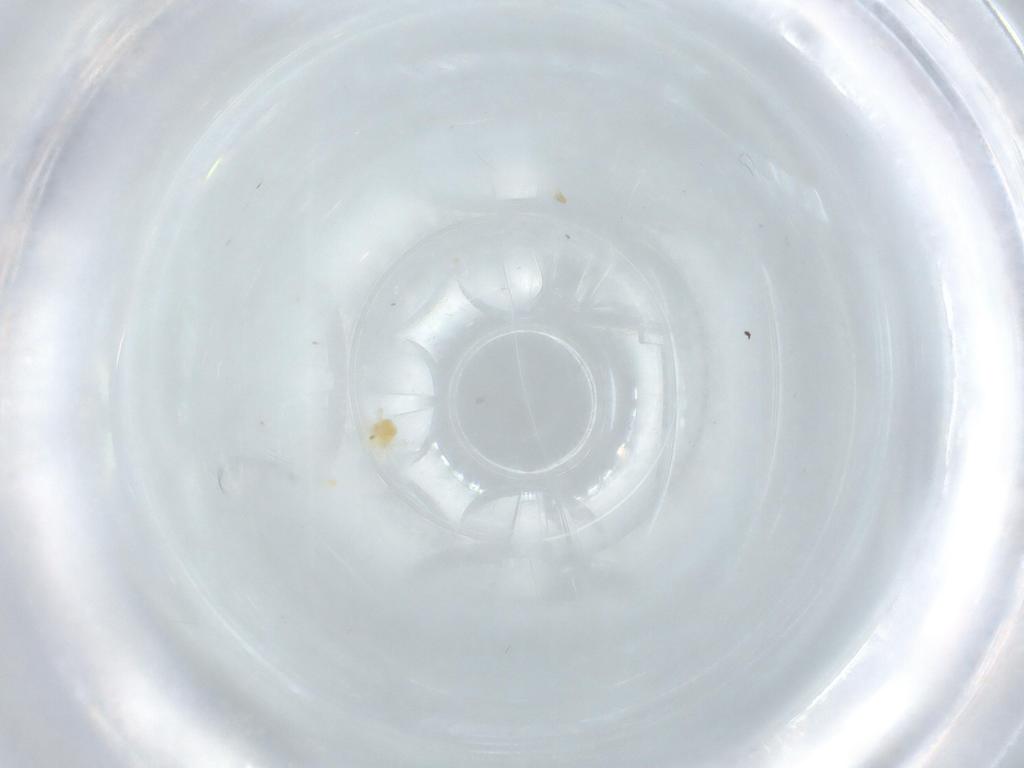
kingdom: Animalia
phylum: Arthropoda
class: Arachnida
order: Trombidiformes
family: Anystidae
